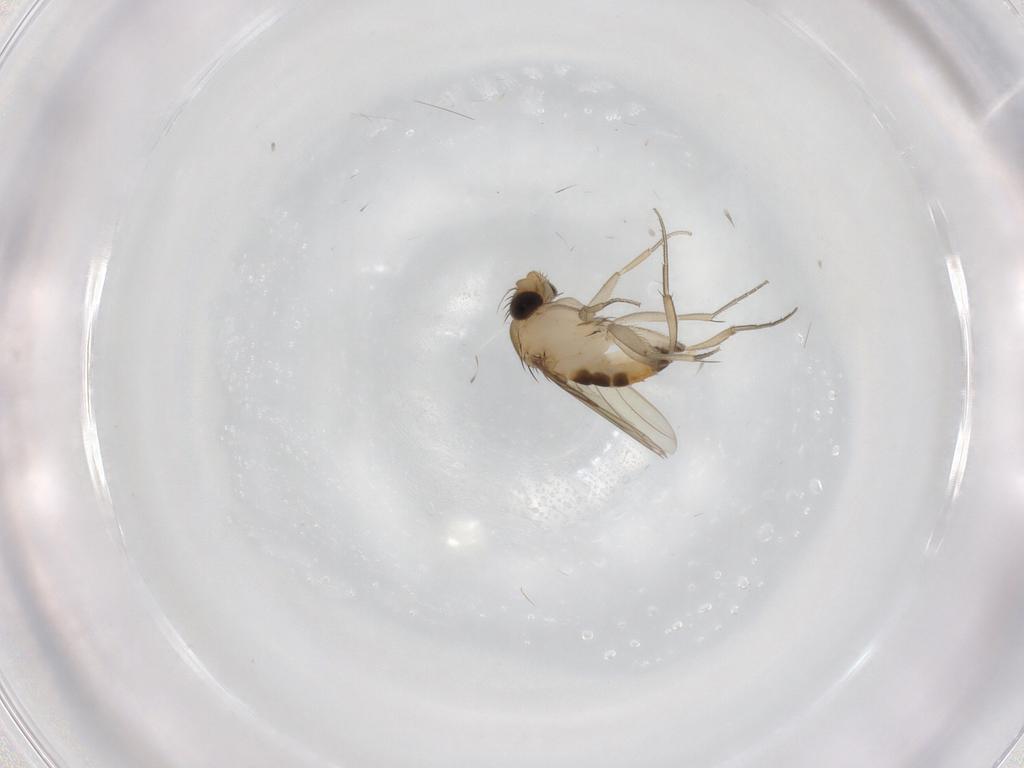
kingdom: Animalia
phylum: Arthropoda
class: Insecta
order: Diptera
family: Phoridae
